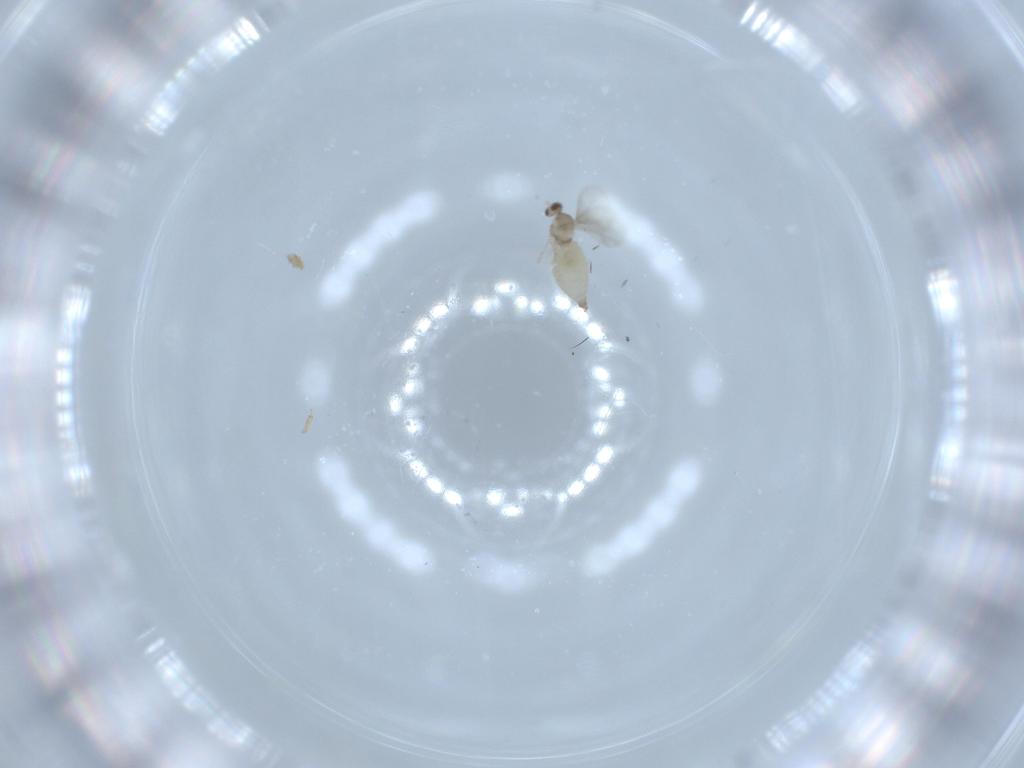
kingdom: Animalia
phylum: Arthropoda
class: Insecta
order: Diptera
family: Cecidomyiidae
